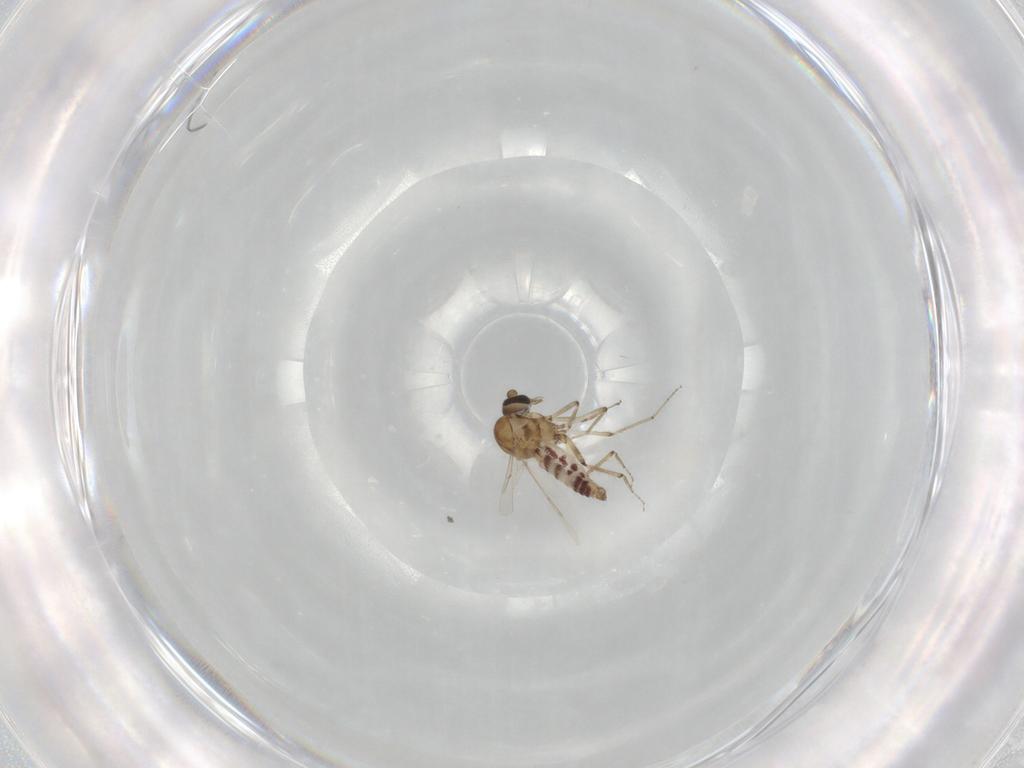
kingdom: Animalia
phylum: Arthropoda
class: Insecta
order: Diptera
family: Ceratopogonidae
